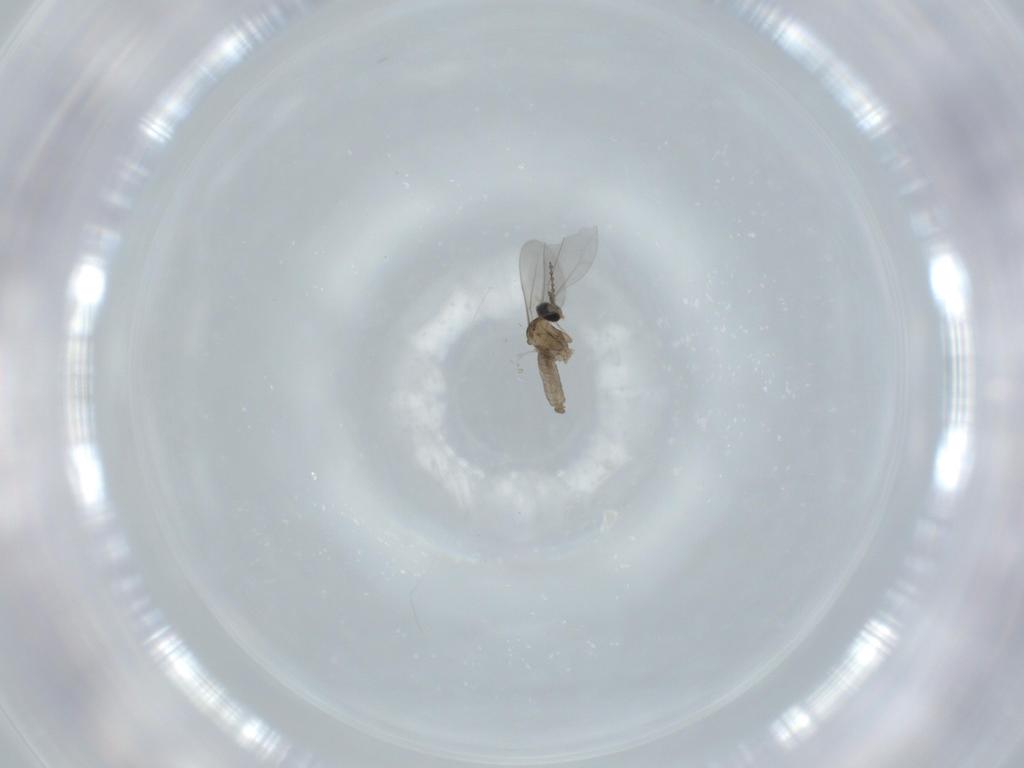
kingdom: Animalia
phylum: Arthropoda
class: Insecta
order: Diptera
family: Cecidomyiidae
